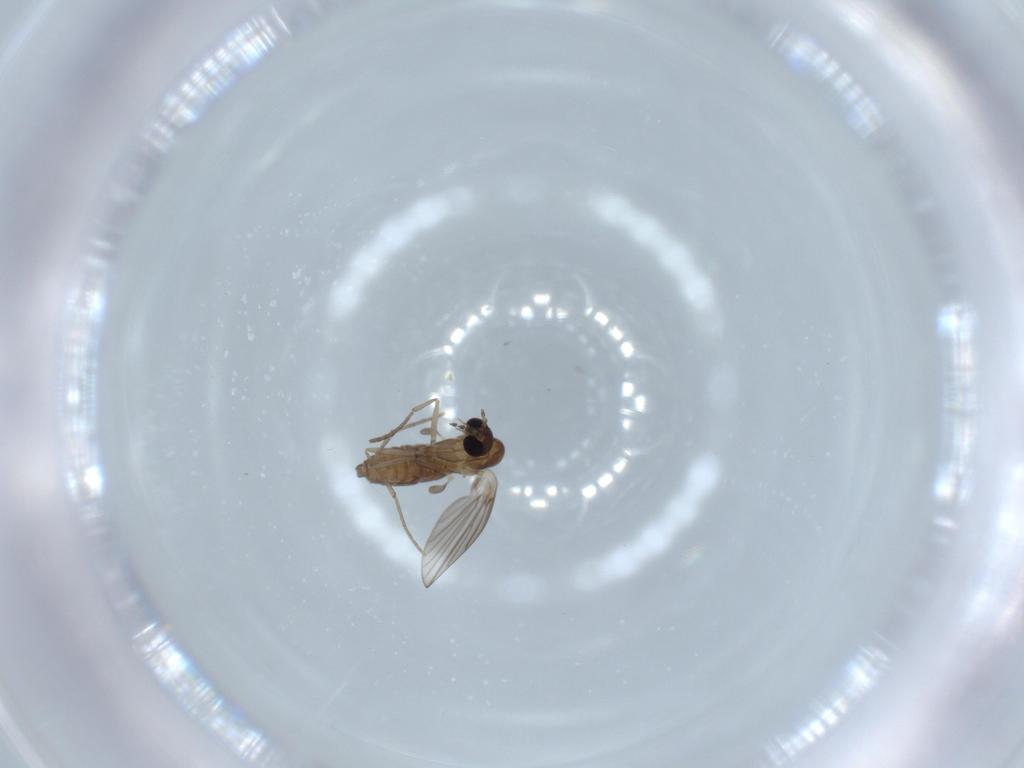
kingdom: Animalia
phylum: Arthropoda
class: Insecta
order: Diptera
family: Psychodidae
